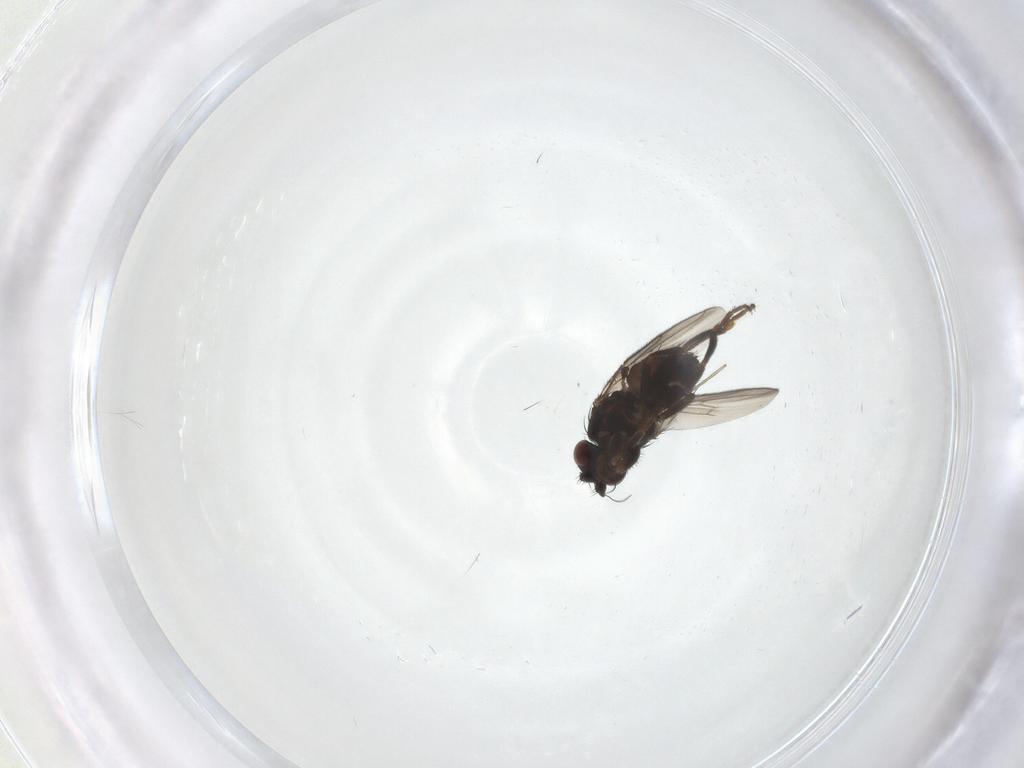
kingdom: Animalia
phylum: Arthropoda
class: Insecta
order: Diptera
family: Sphaeroceridae
